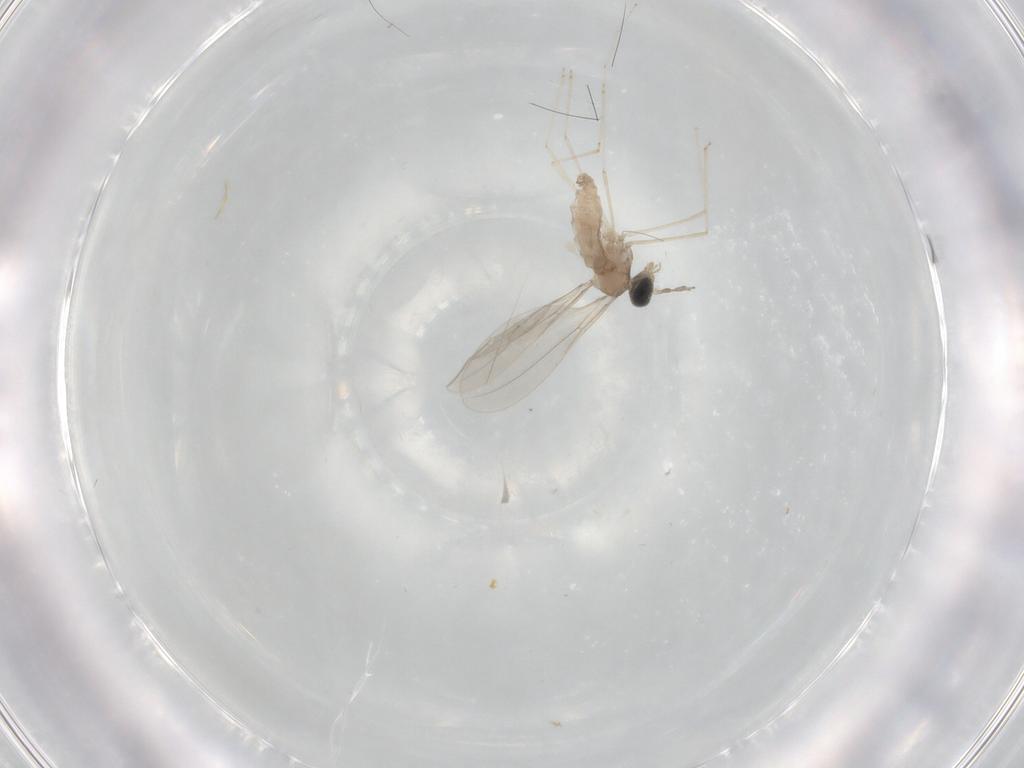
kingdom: Animalia
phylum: Arthropoda
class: Insecta
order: Diptera
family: Cecidomyiidae
